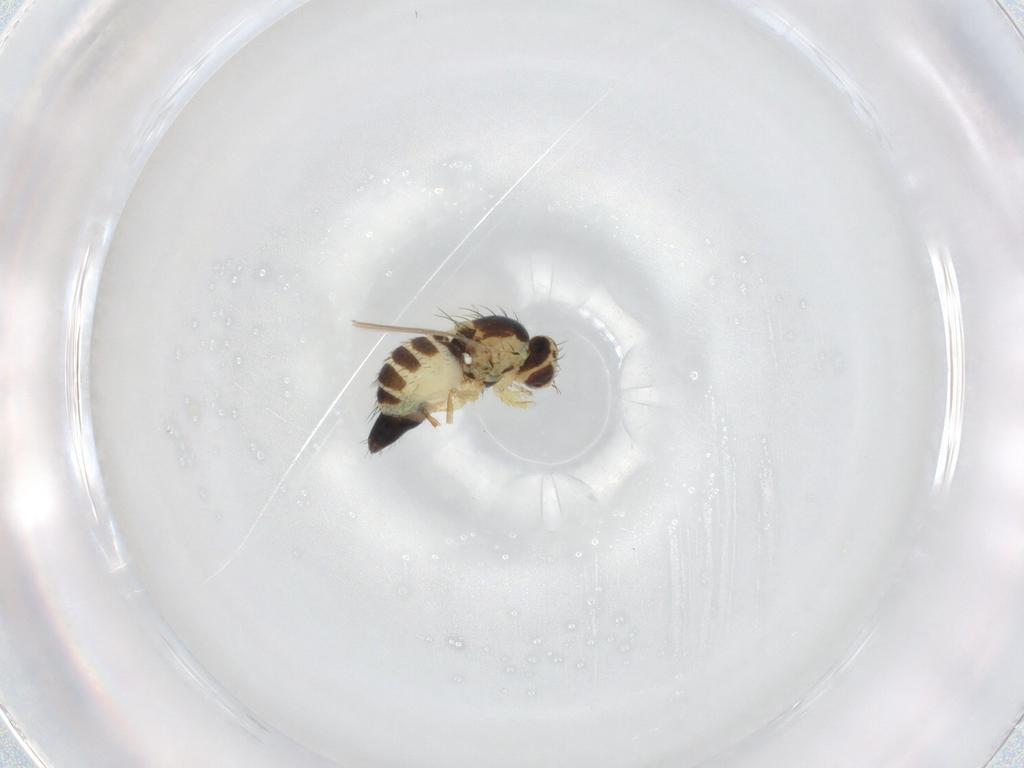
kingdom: Animalia
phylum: Arthropoda
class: Insecta
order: Diptera
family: Agromyzidae
